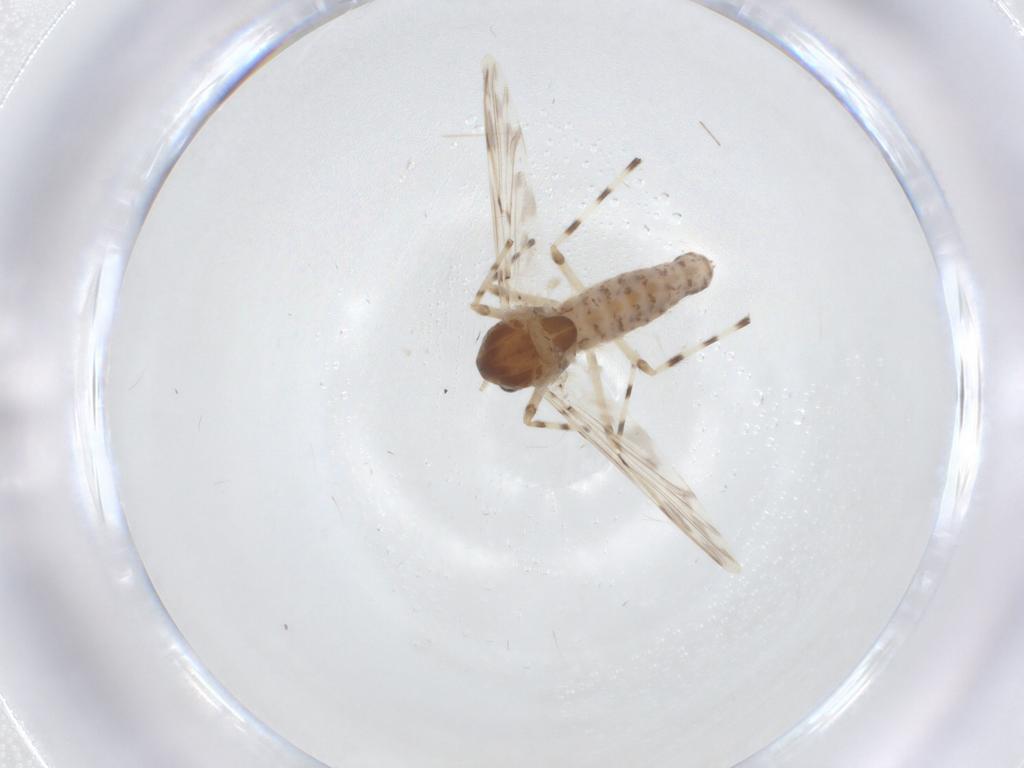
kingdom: Animalia
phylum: Arthropoda
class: Insecta
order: Diptera
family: Chironomidae
